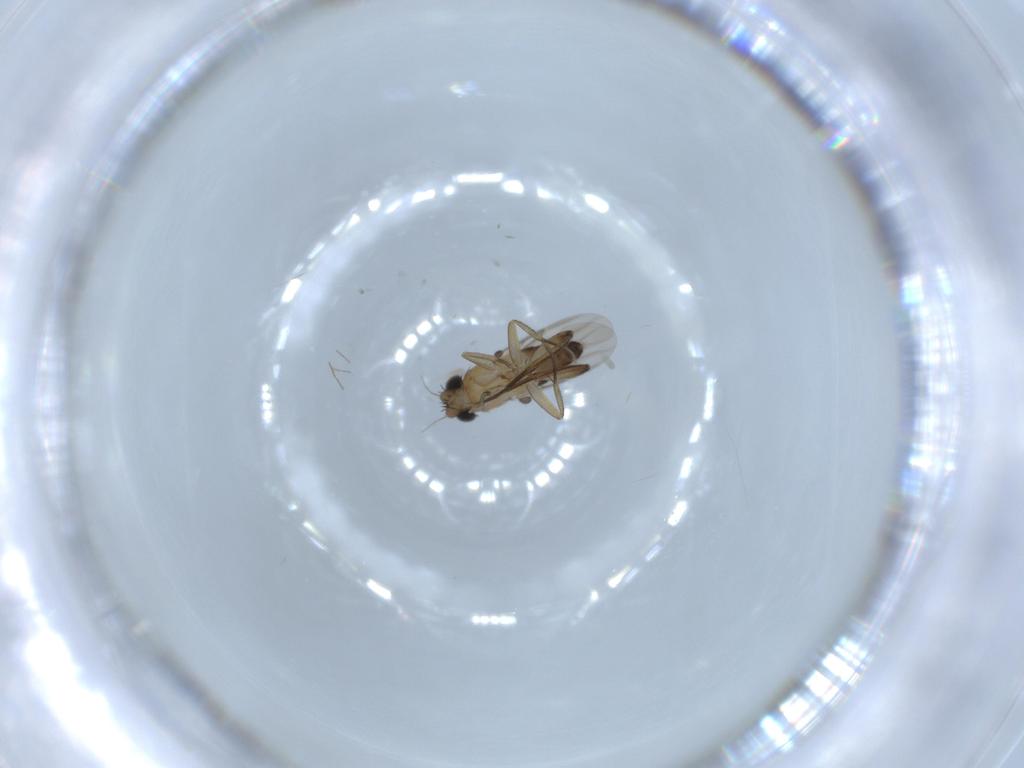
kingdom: Animalia
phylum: Arthropoda
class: Insecta
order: Diptera
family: Phoridae
